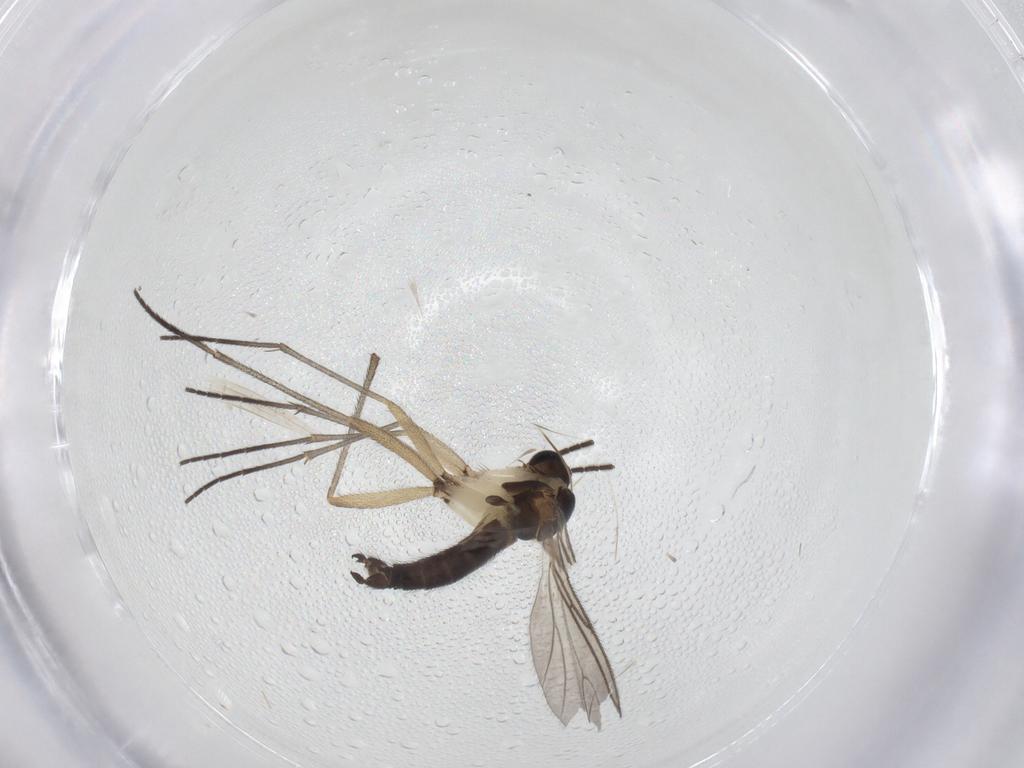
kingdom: Animalia
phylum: Arthropoda
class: Insecta
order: Diptera
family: Sciaridae
